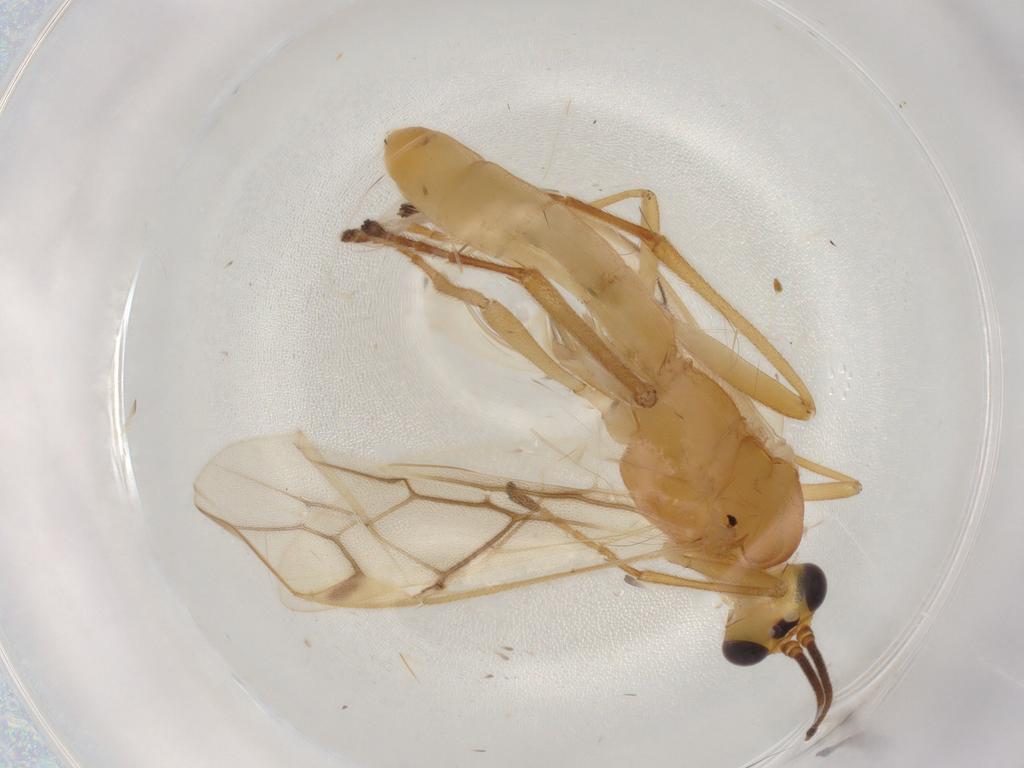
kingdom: Animalia
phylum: Arthropoda
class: Insecta
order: Hymenoptera
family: Braconidae
